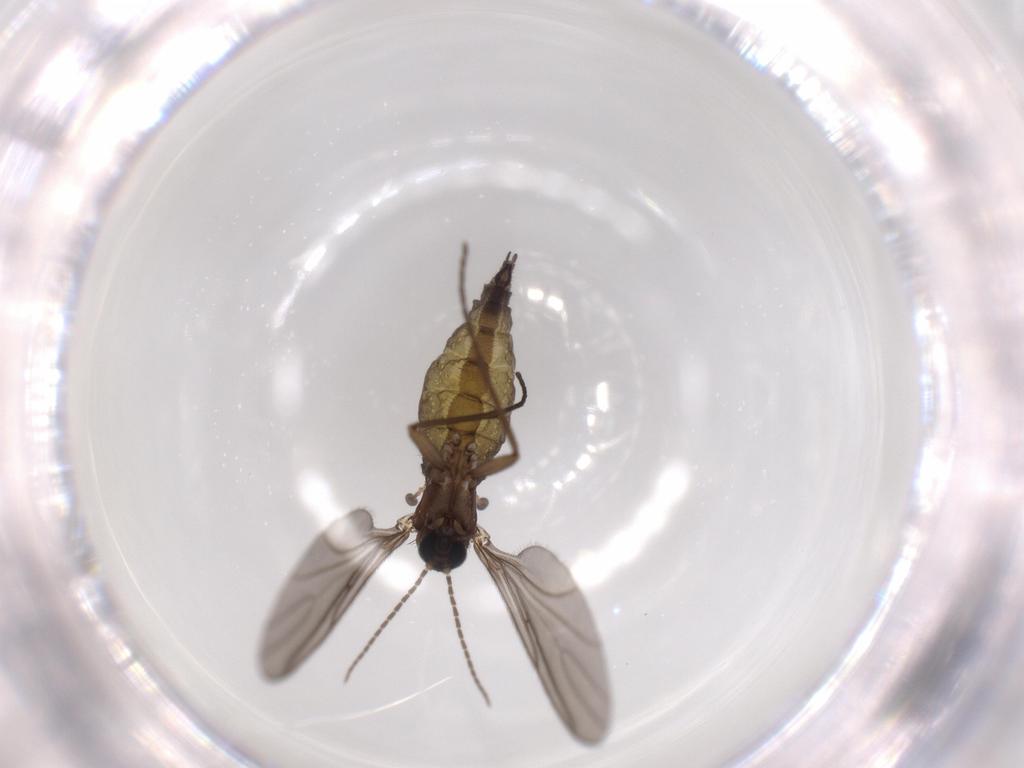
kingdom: Animalia
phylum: Arthropoda
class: Insecta
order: Diptera
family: Sciaridae
